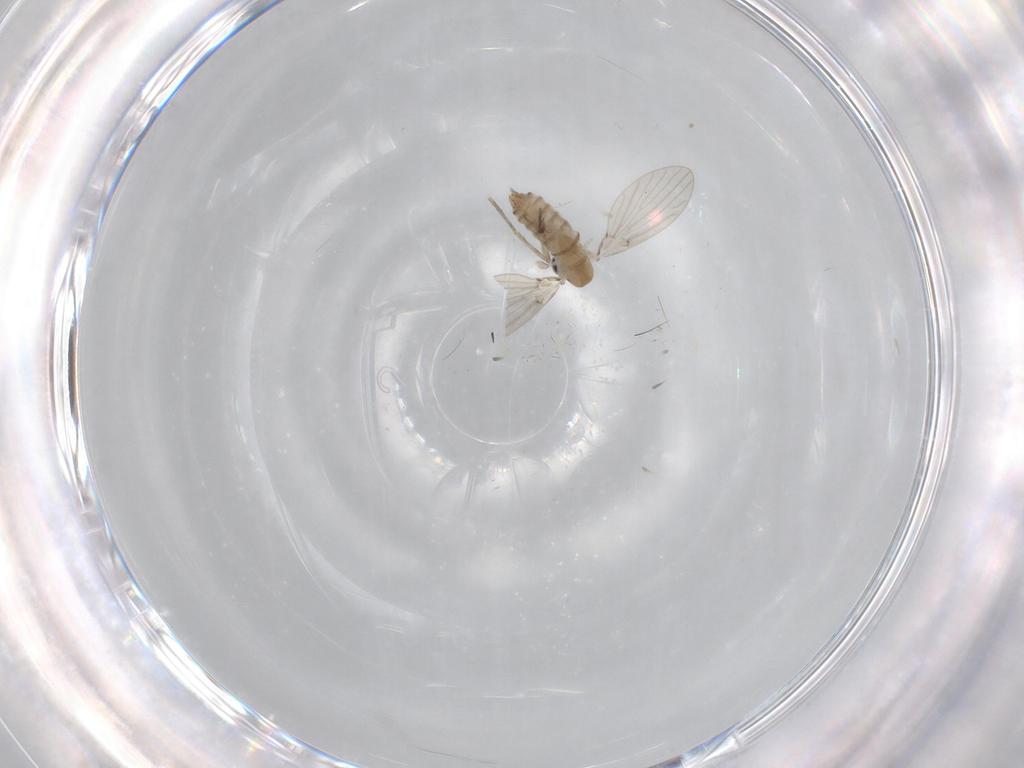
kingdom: Animalia
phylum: Arthropoda
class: Insecta
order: Diptera
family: Psychodidae
